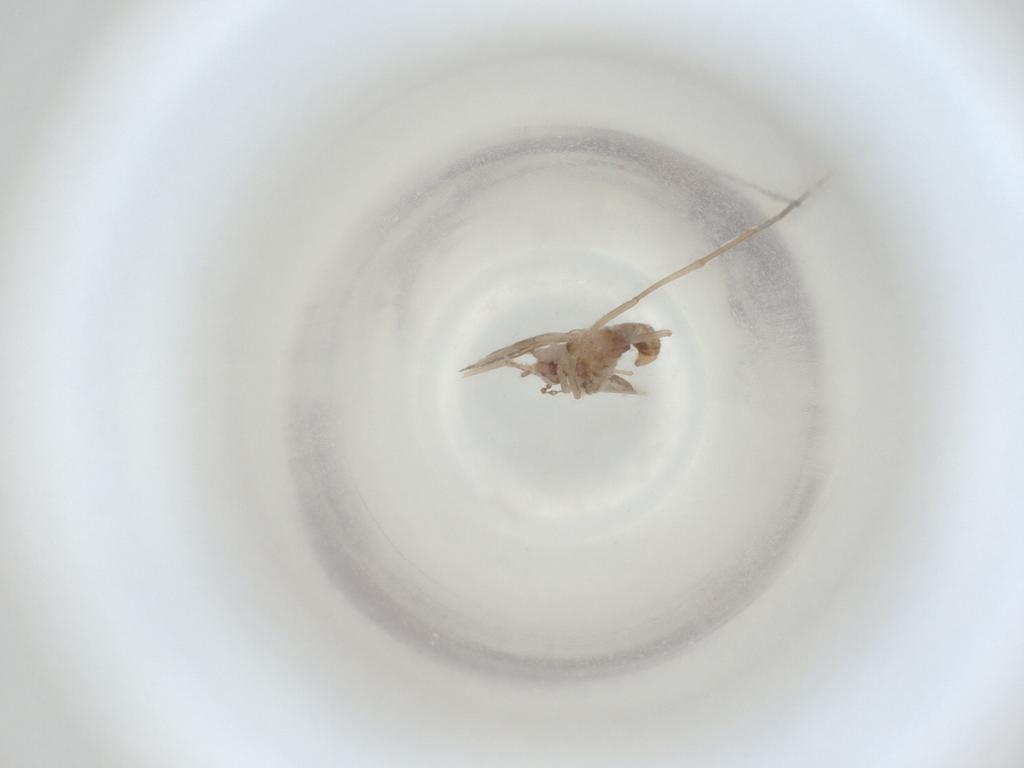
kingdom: Animalia
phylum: Arthropoda
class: Insecta
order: Diptera
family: Cecidomyiidae
